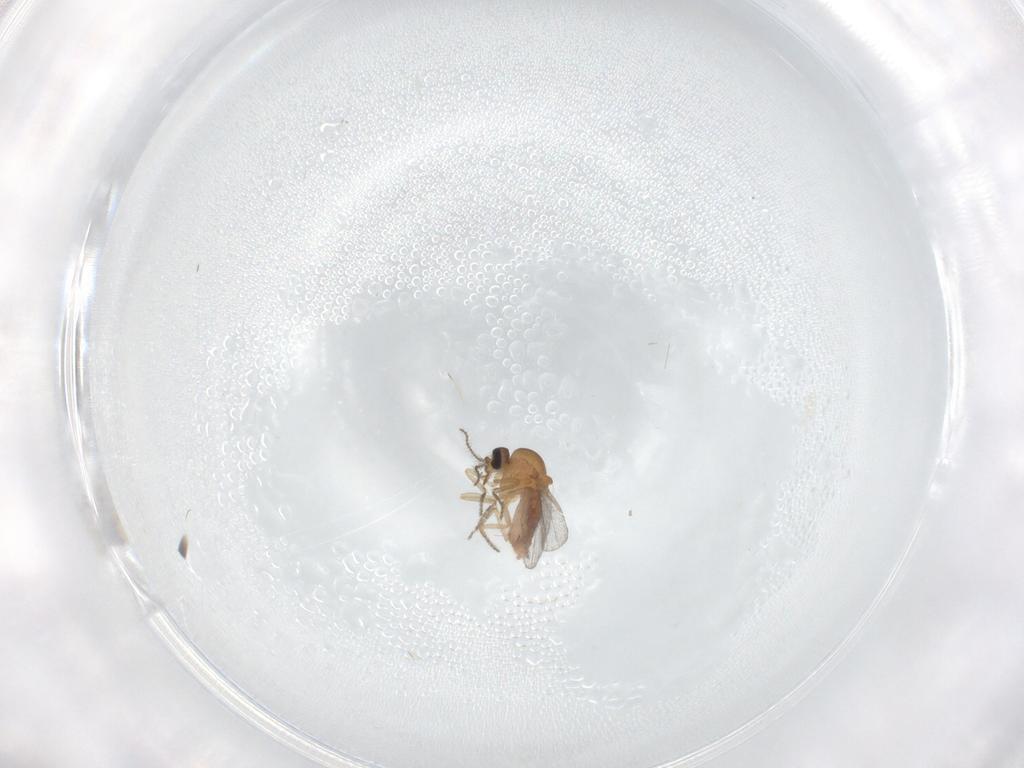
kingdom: Animalia
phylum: Arthropoda
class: Insecta
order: Diptera
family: Ceratopogonidae
